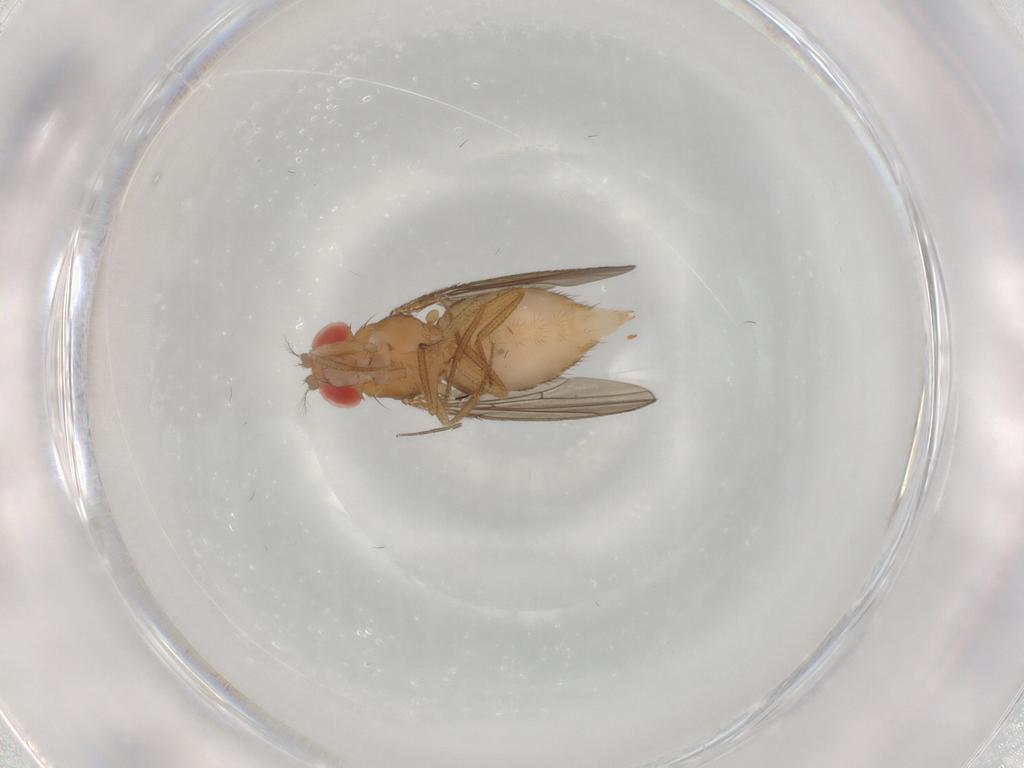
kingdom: Animalia
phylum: Arthropoda
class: Insecta
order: Diptera
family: Drosophilidae
